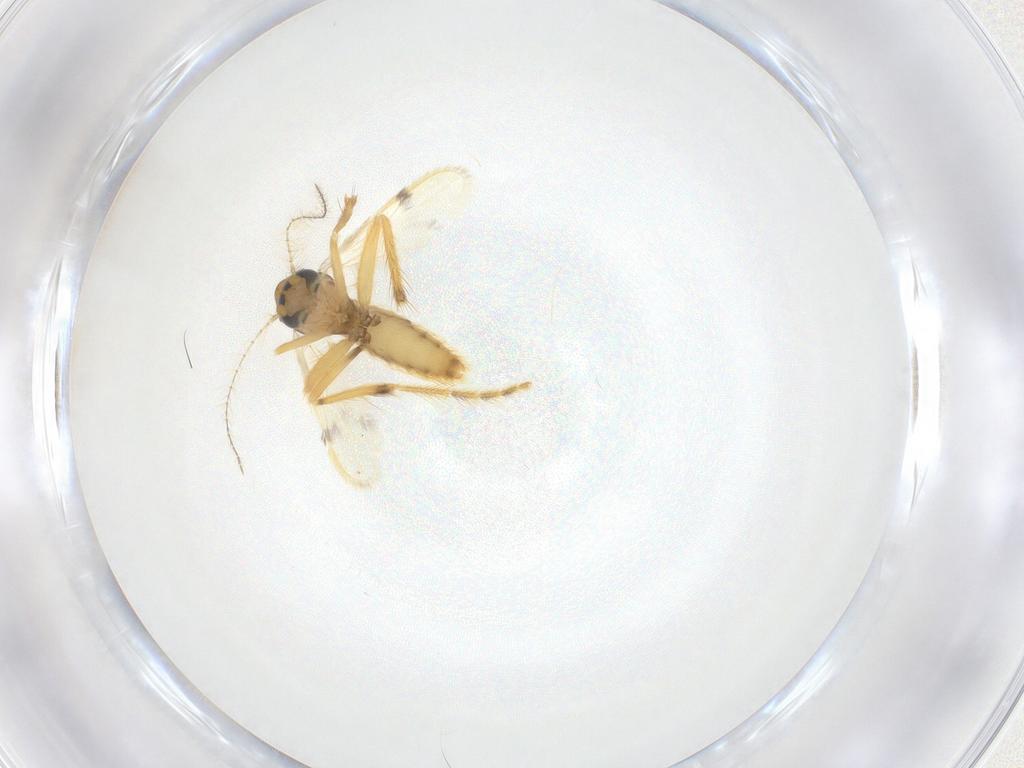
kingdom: Animalia
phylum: Arthropoda
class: Insecta
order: Diptera
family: Corethrellidae
